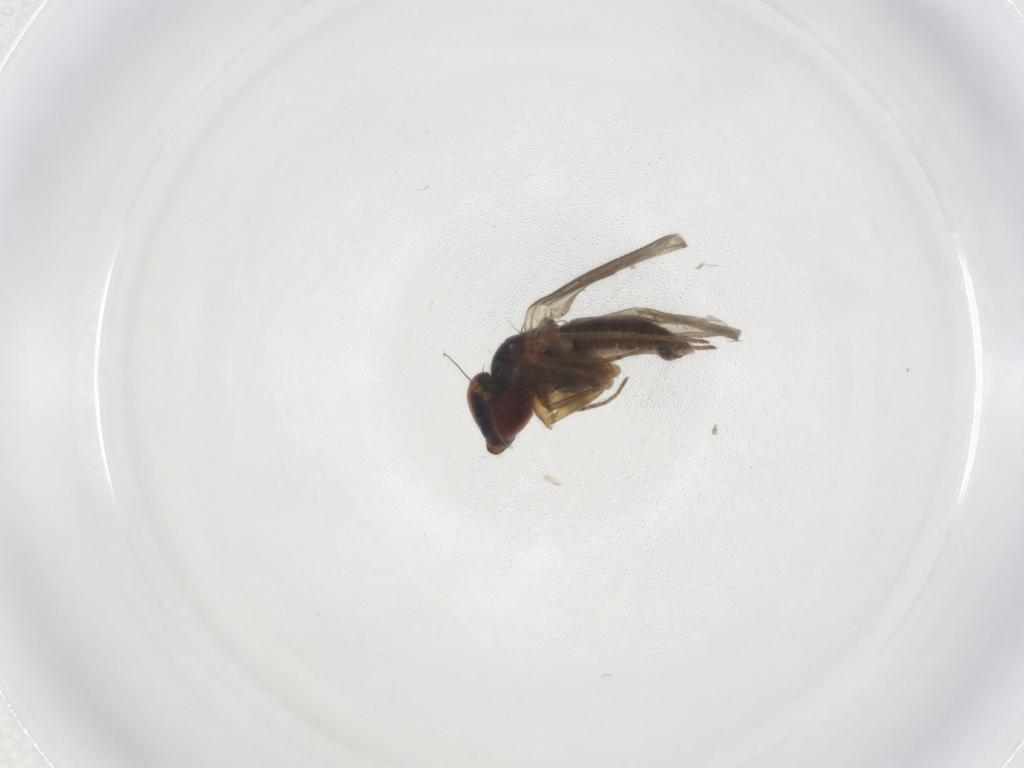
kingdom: Animalia
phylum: Arthropoda
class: Insecta
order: Diptera
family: Dolichopodidae
